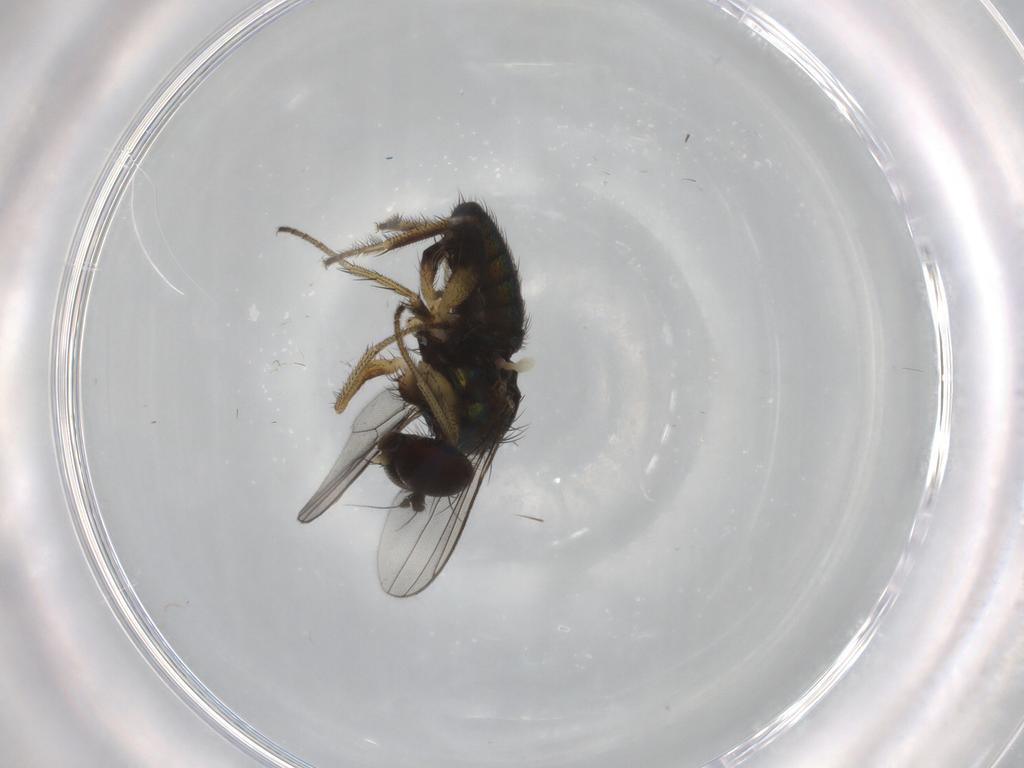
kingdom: Animalia
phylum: Arthropoda
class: Insecta
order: Diptera
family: Dolichopodidae
